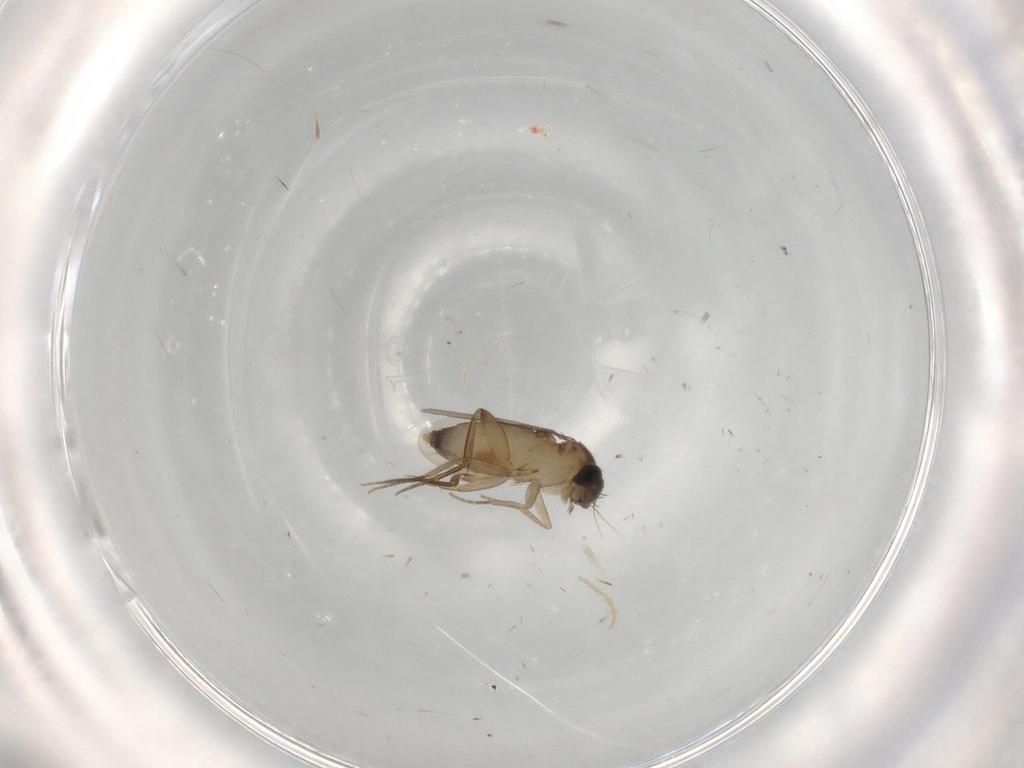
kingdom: Animalia
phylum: Arthropoda
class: Insecta
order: Diptera
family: Phoridae
